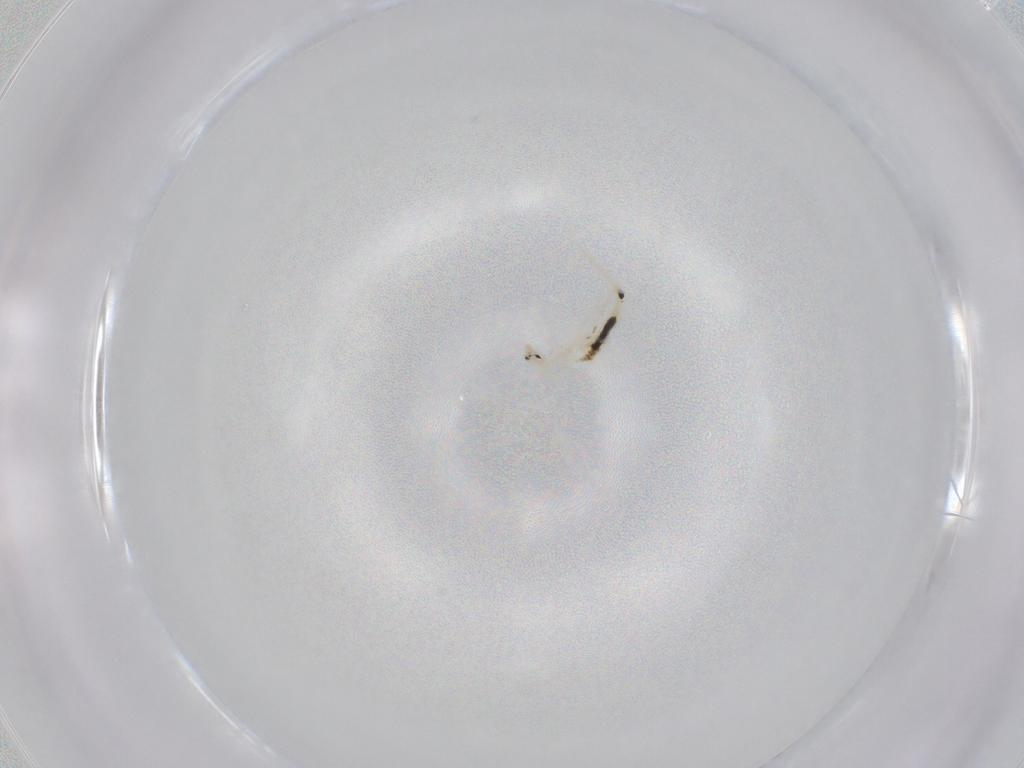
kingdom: Animalia
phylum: Arthropoda
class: Collembola
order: Entomobryomorpha
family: Entomobryidae
